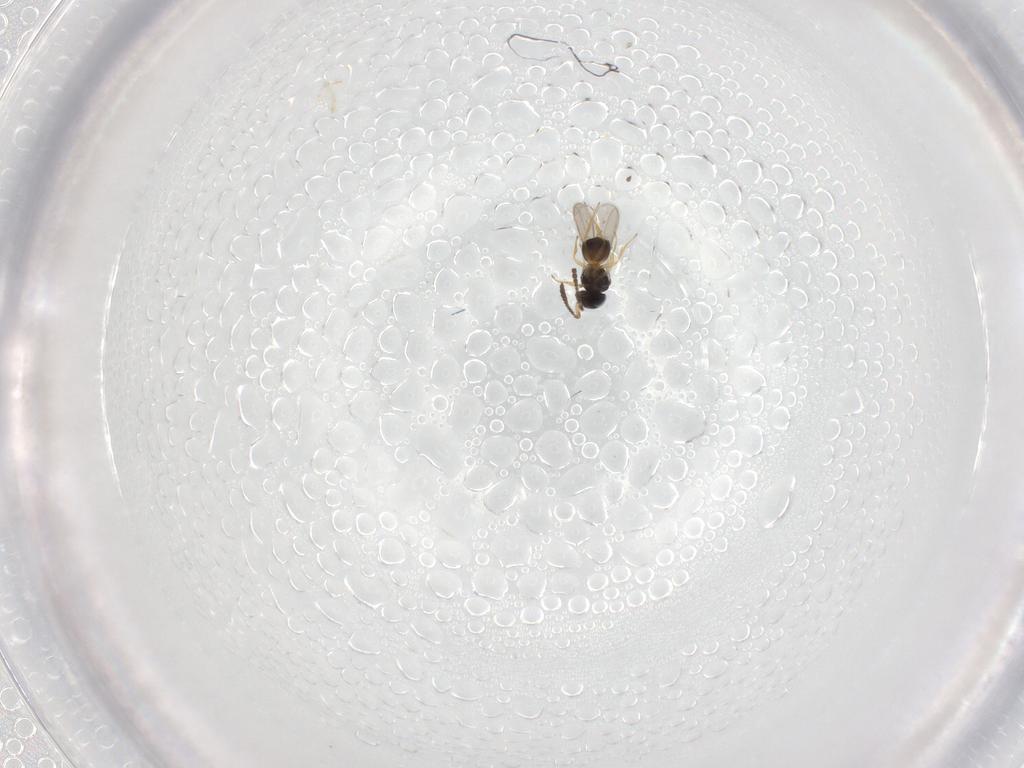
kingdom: Animalia
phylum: Arthropoda
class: Insecta
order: Hymenoptera
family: Scelionidae
